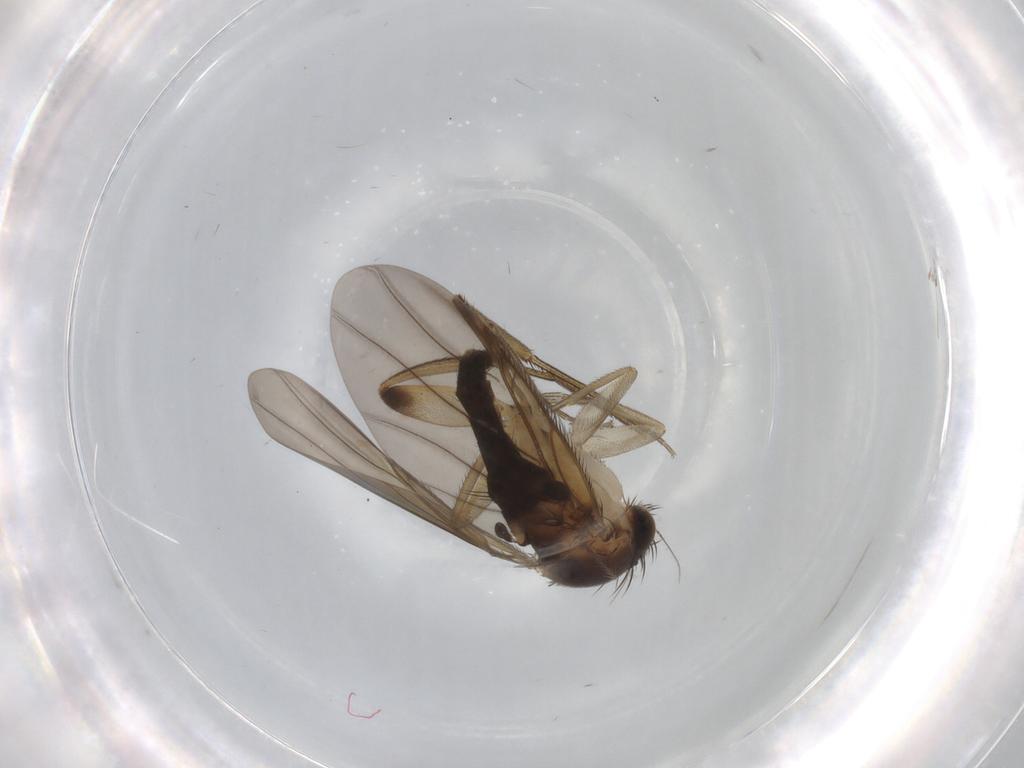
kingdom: Animalia
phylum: Arthropoda
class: Insecta
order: Diptera
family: Phoridae
